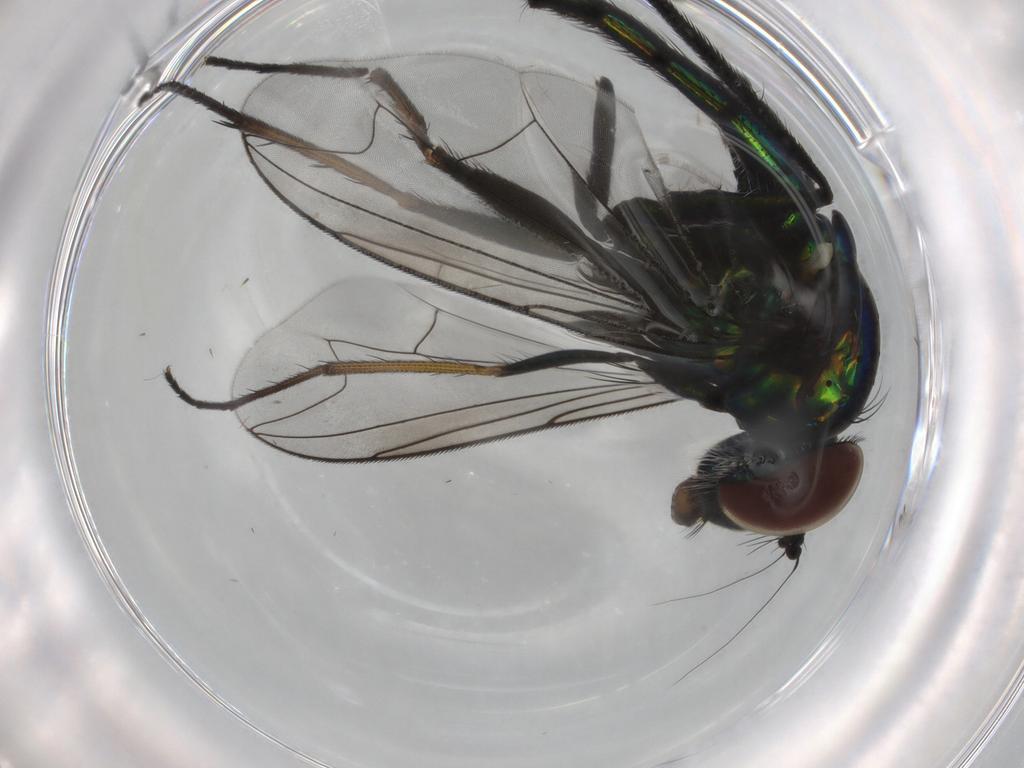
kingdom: Animalia
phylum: Arthropoda
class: Insecta
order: Diptera
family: Dolichopodidae
